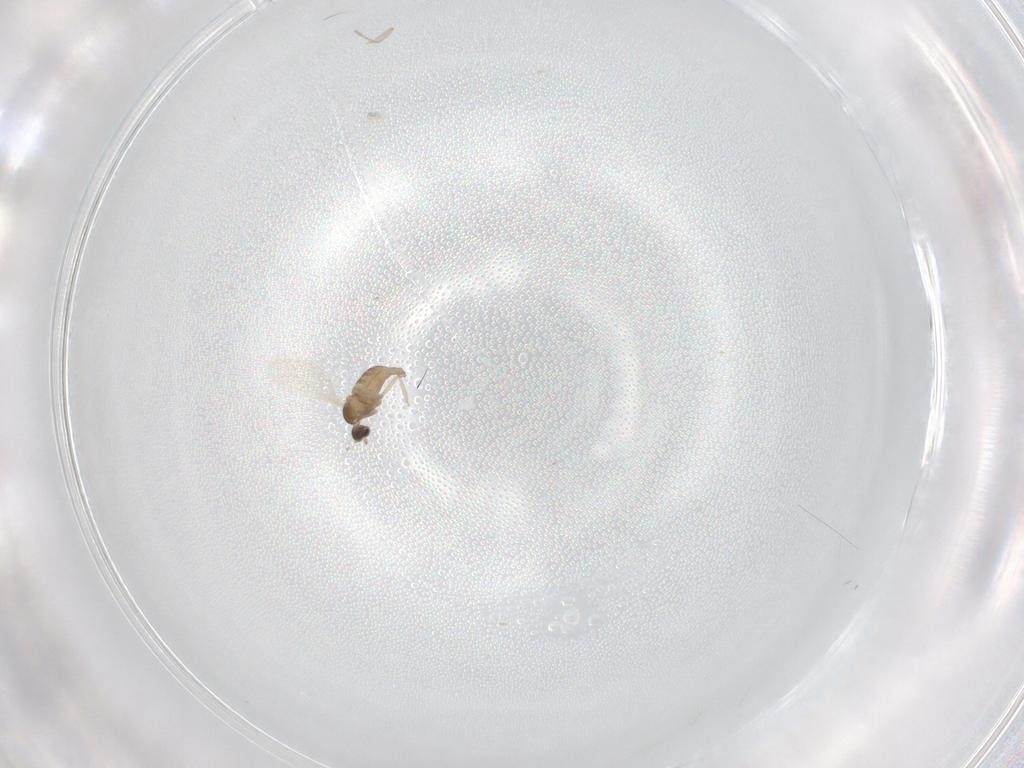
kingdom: Animalia
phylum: Arthropoda
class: Insecta
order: Diptera
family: Cecidomyiidae
